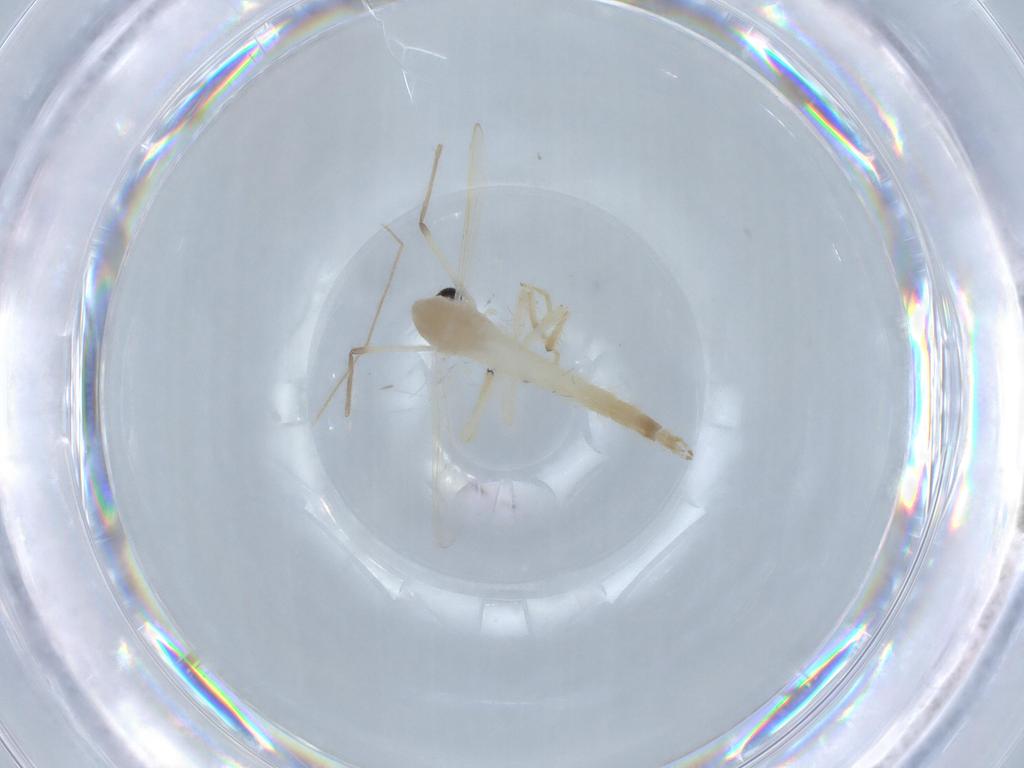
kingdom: Animalia
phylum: Arthropoda
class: Insecta
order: Diptera
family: Chironomidae
